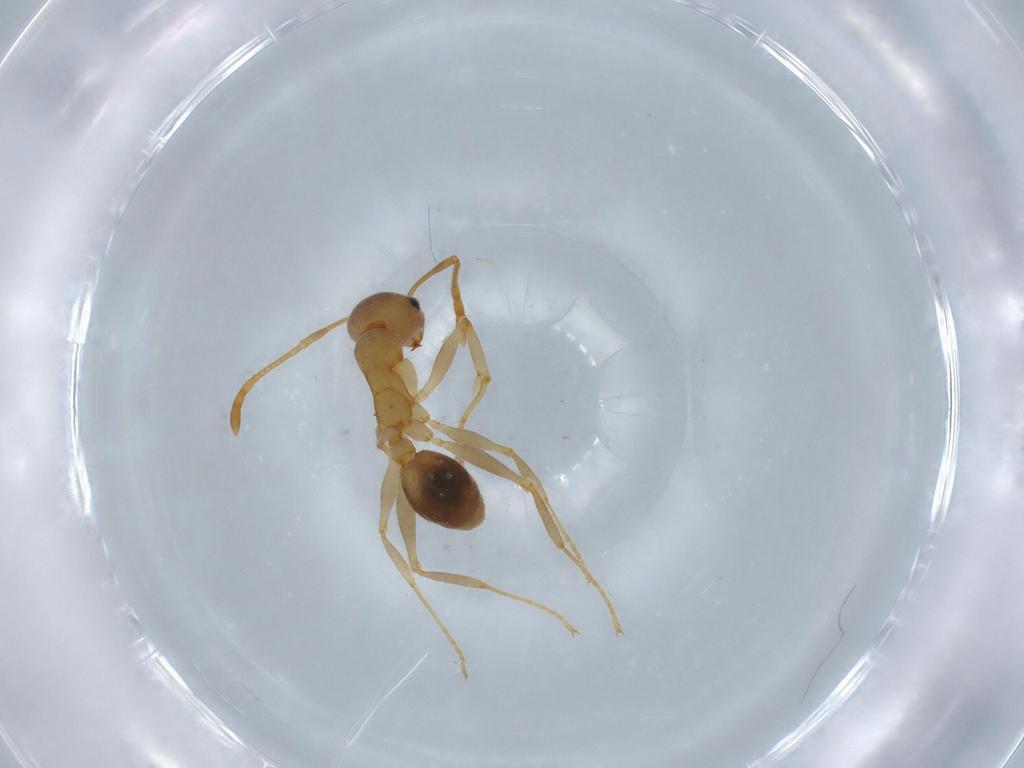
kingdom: Animalia
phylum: Arthropoda
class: Insecta
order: Hymenoptera
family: Formicidae
